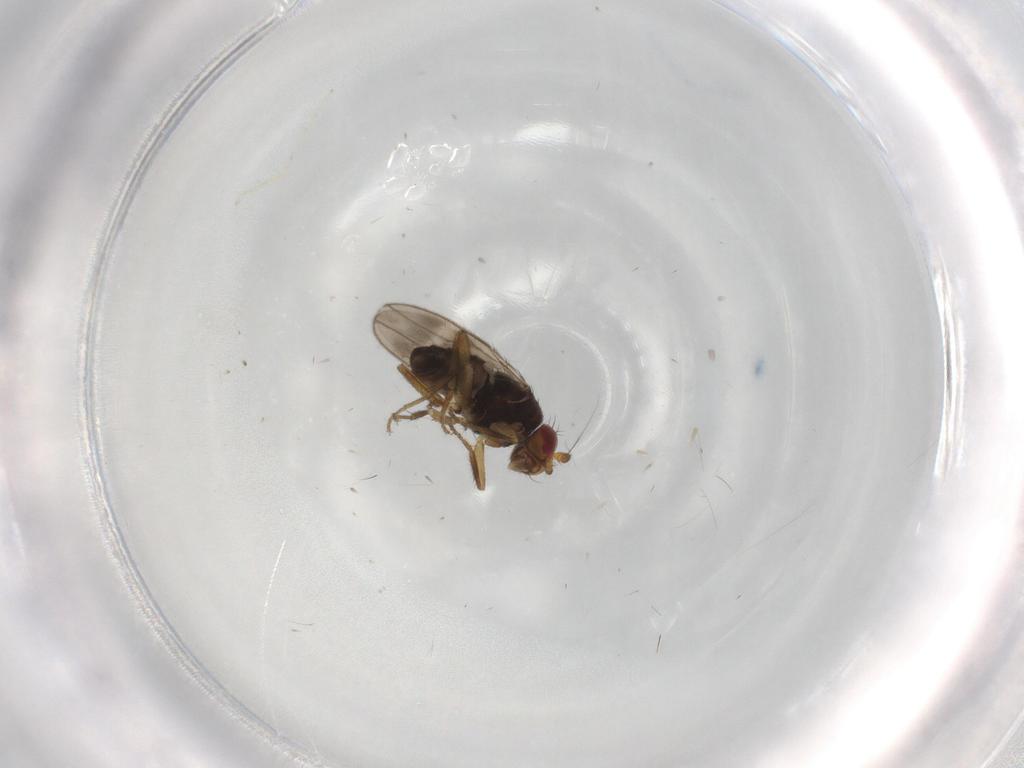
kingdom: Animalia
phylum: Arthropoda
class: Insecta
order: Diptera
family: Sphaeroceridae
